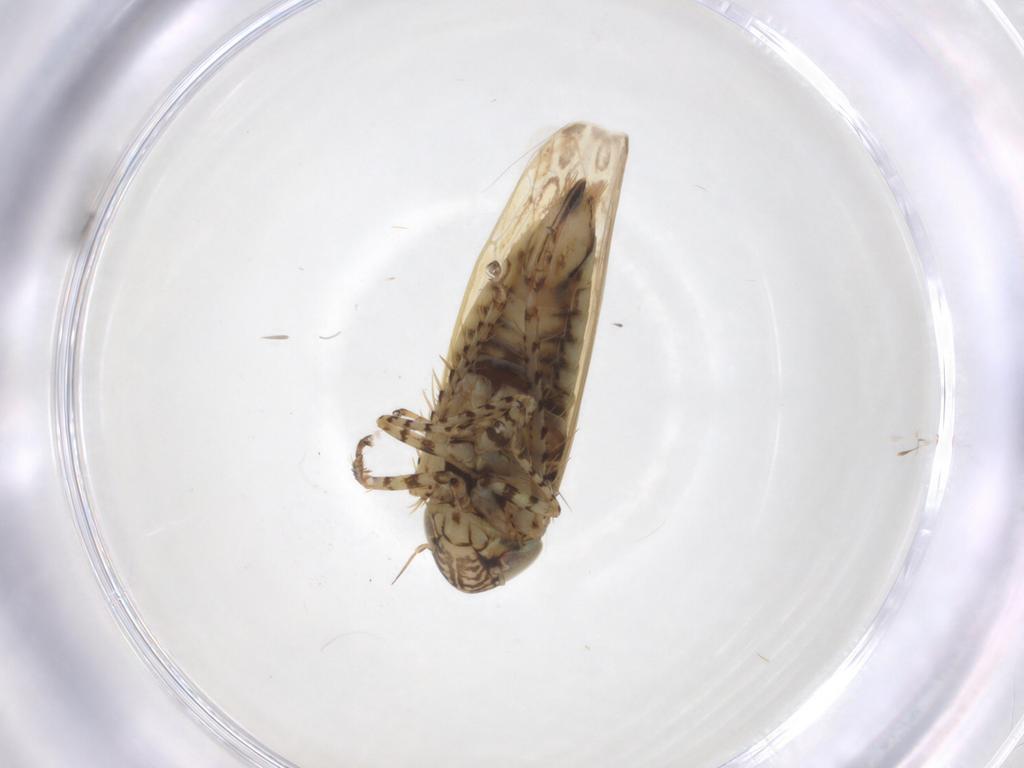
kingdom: Animalia
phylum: Arthropoda
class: Insecta
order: Hemiptera
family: Cicadellidae
